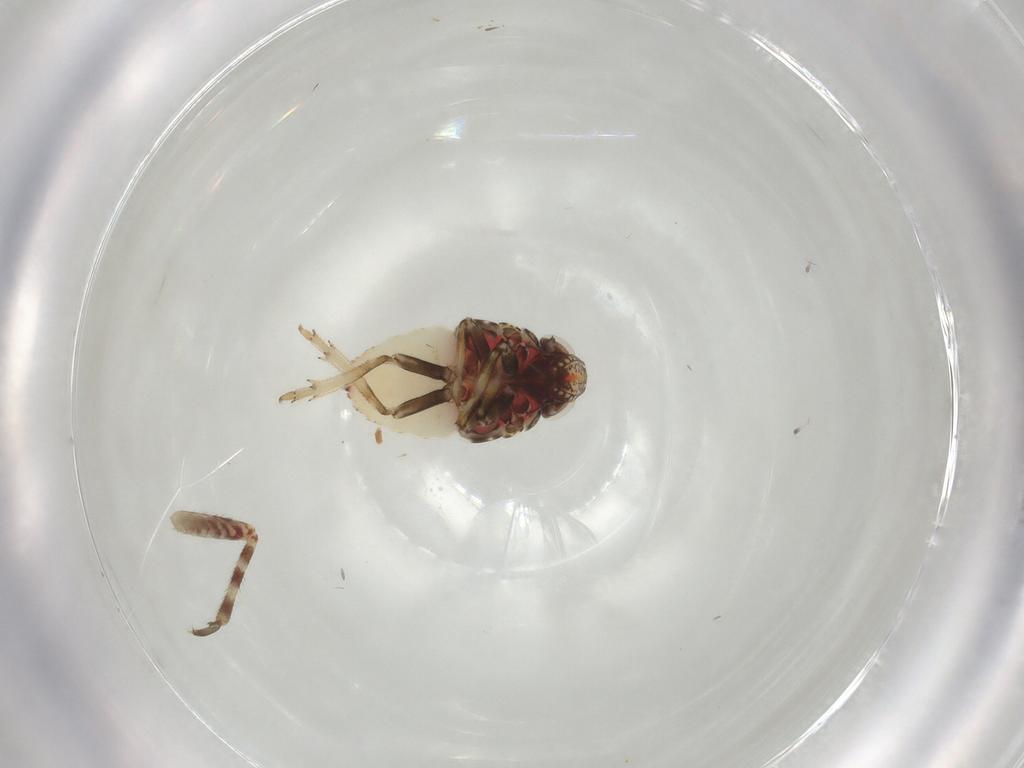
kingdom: Animalia
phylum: Arthropoda
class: Insecta
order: Hemiptera
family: Miridae
